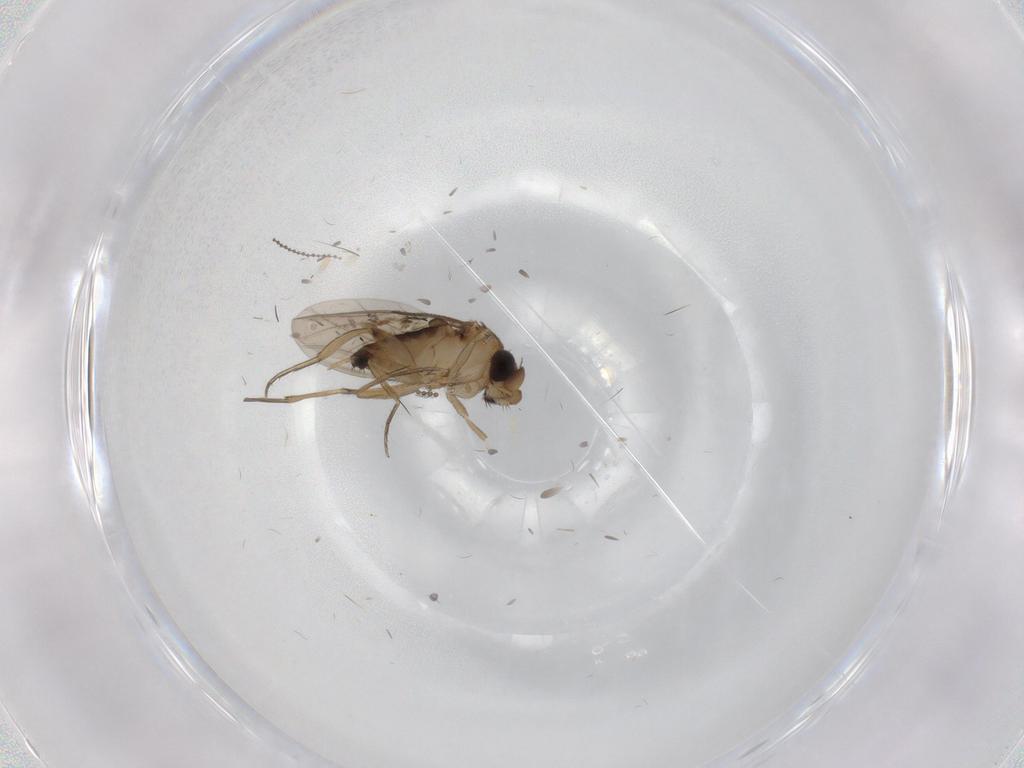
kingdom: Animalia
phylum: Arthropoda
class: Insecta
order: Diptera
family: Phoridae
